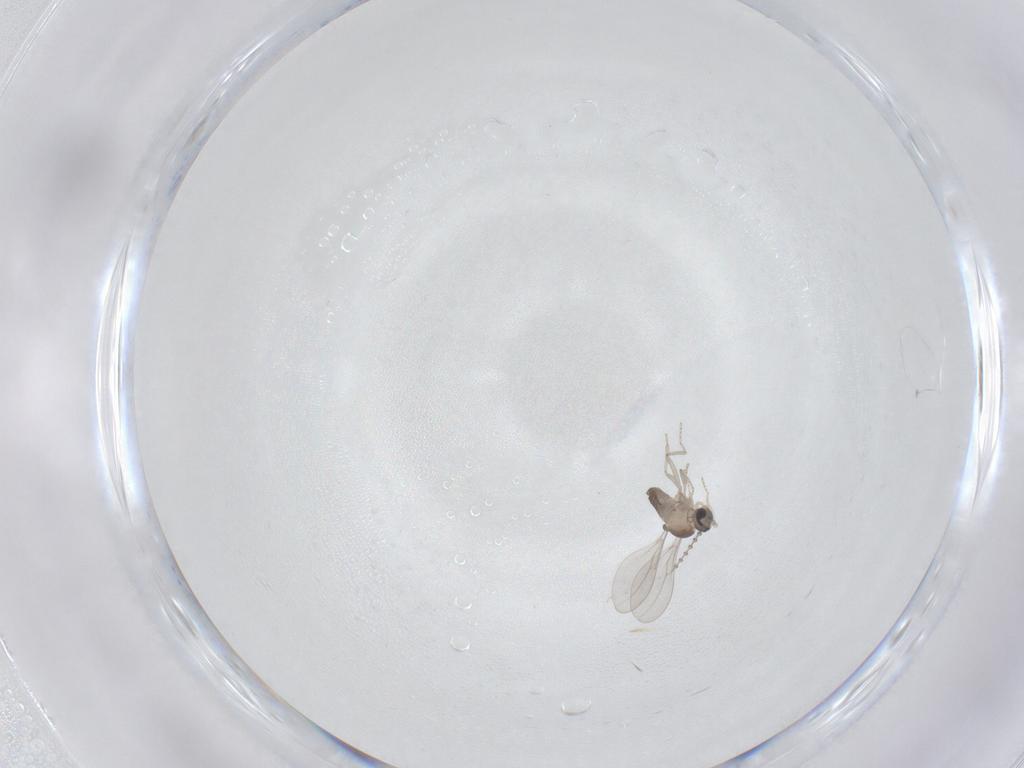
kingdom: Animalia
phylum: Arthropoda
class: Insecta
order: Diptera
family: Cecidomyiidae
